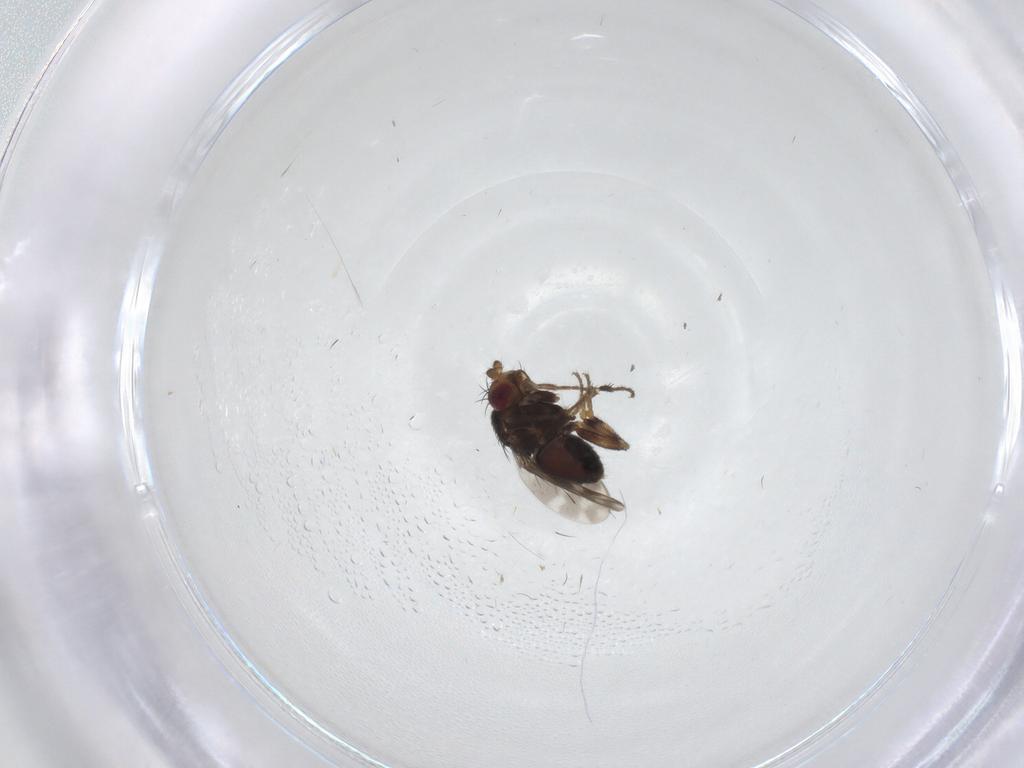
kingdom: Animalia
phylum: Arthropoda
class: Insecta
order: Diptera
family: Sphaeroceridae
